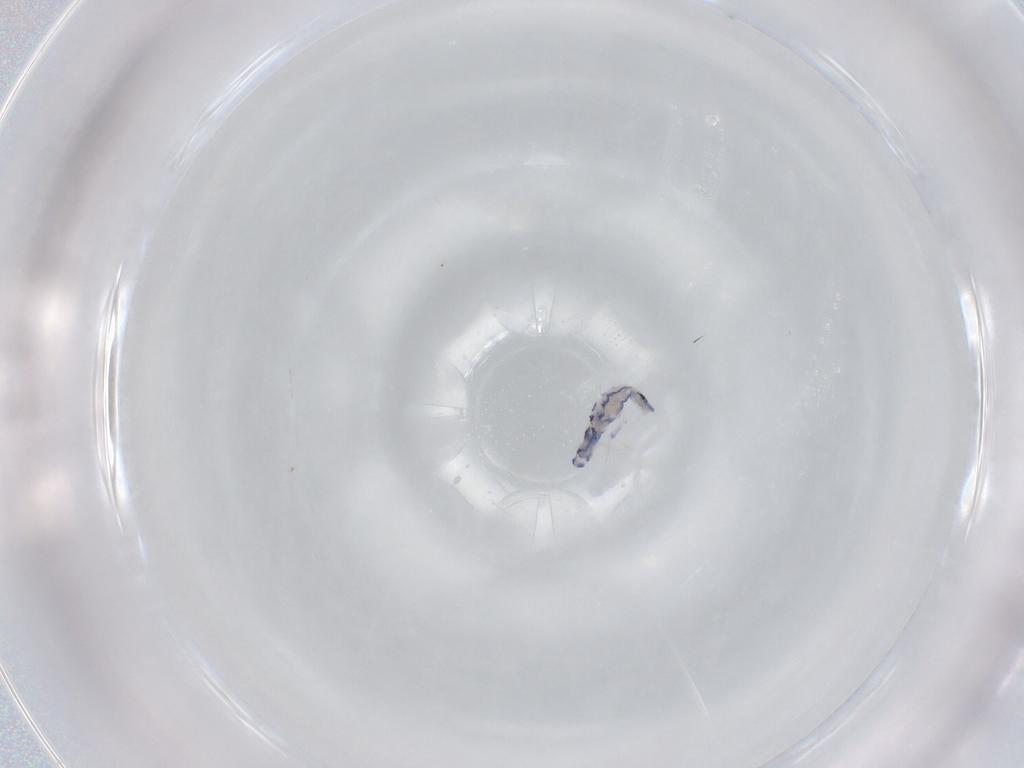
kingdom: Animalia
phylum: Arthropoda
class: Collembola
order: Entomobryomorpha
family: Entomobryidae
